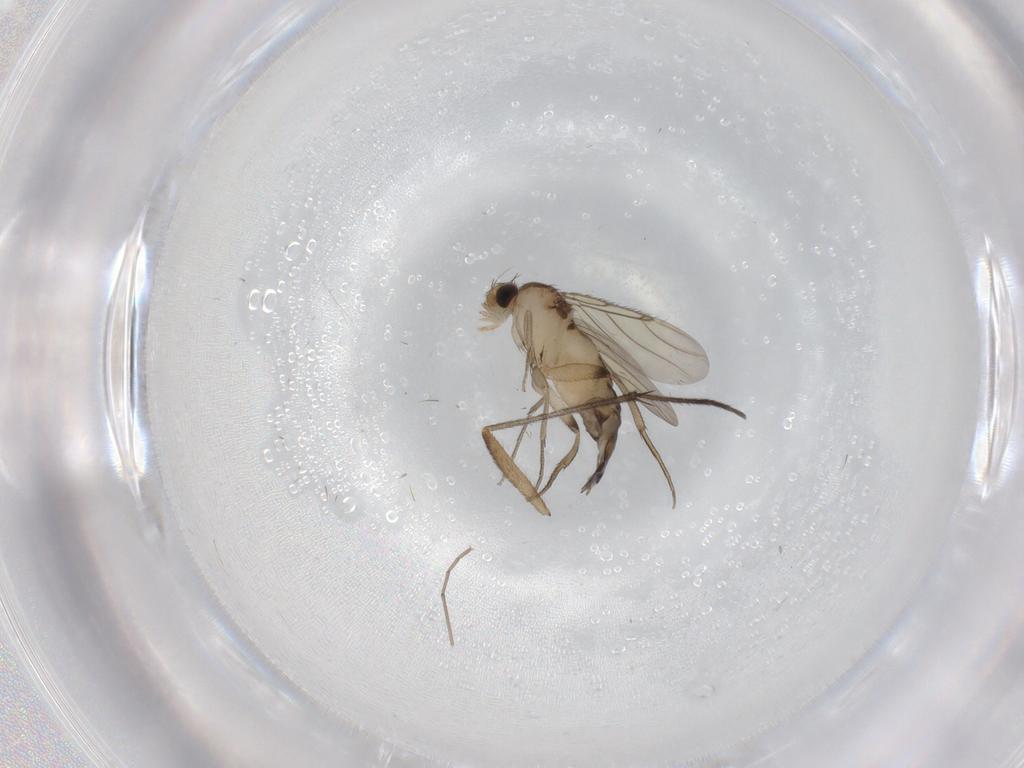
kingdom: Animalia
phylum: Arthropoda
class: Insecta
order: Diptera
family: Phoridae
